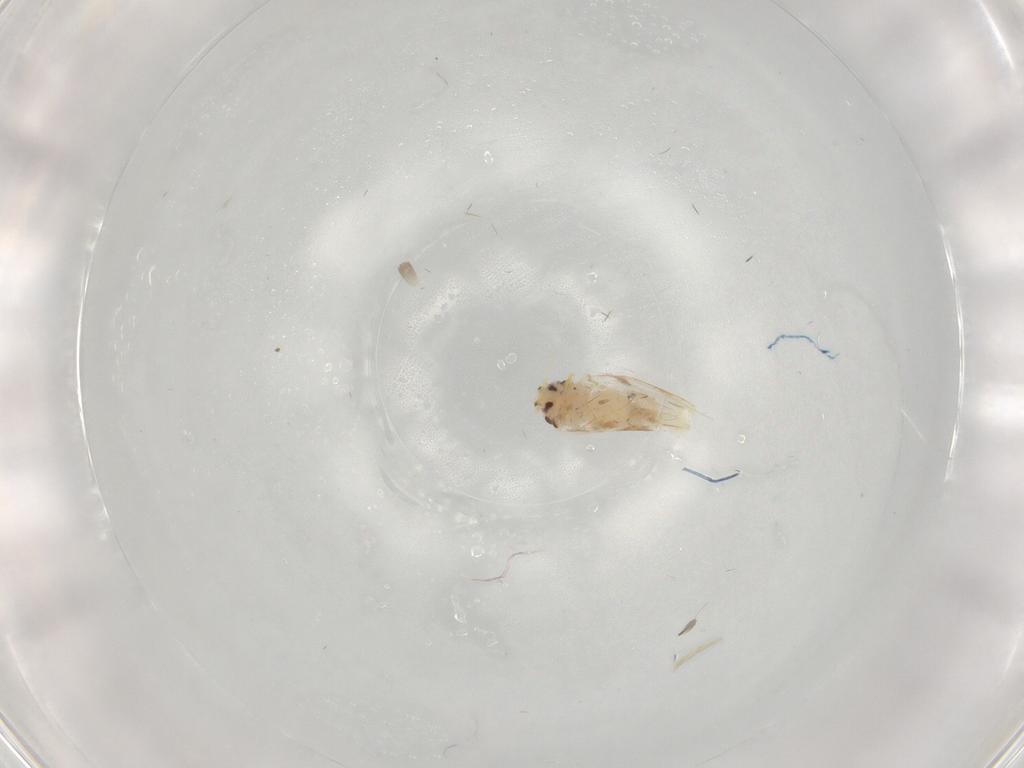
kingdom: Animalia
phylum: Arthropoda
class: Insecta
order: Hemiptera
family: Aleyrodidae
